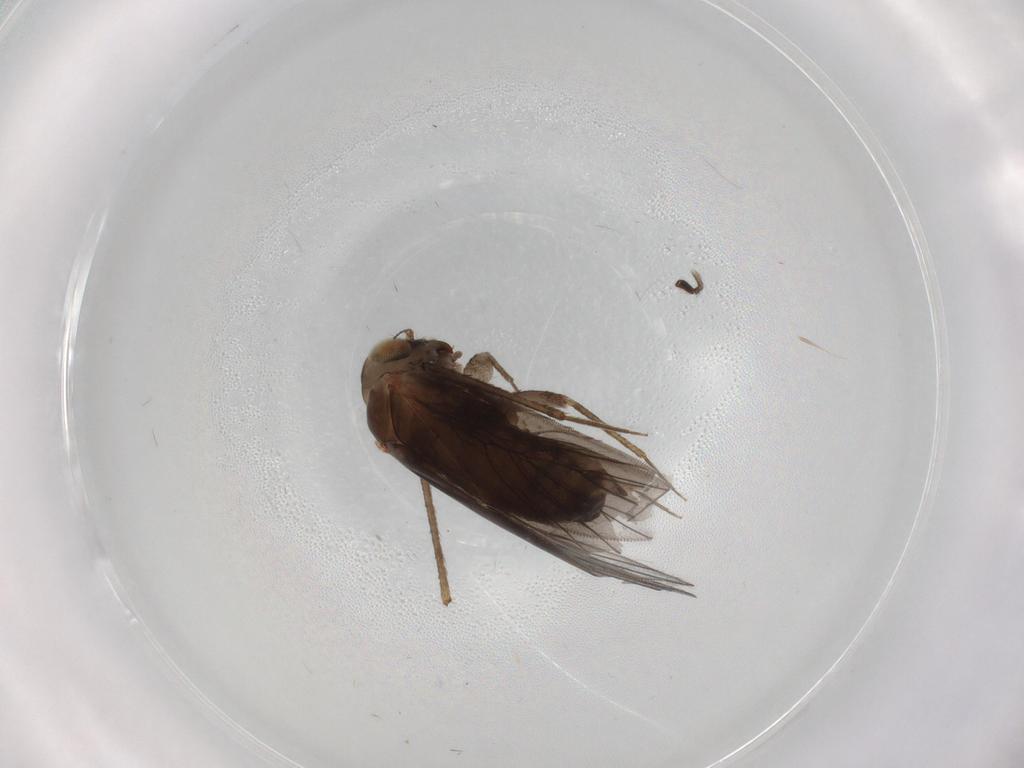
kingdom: Animalia
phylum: Arthropoda
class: Insecta
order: Psocodea
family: Lepidopsocidae
